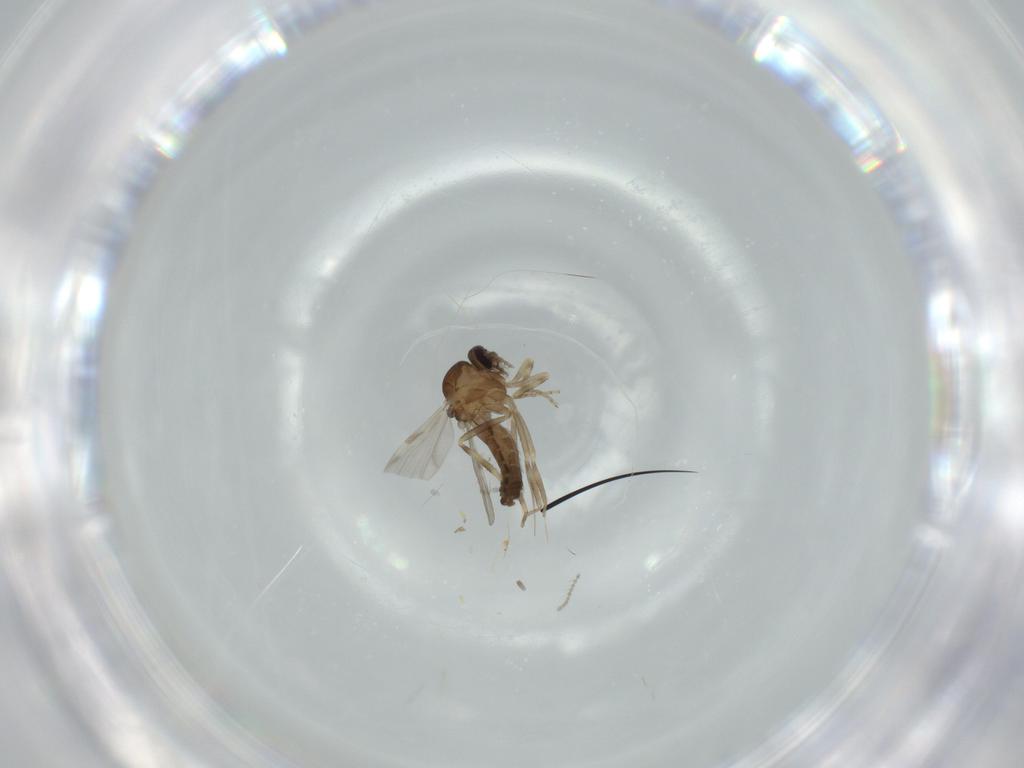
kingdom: Animalia
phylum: Arthropoda
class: Insecta
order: Diptera
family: Ceratopogonidae
